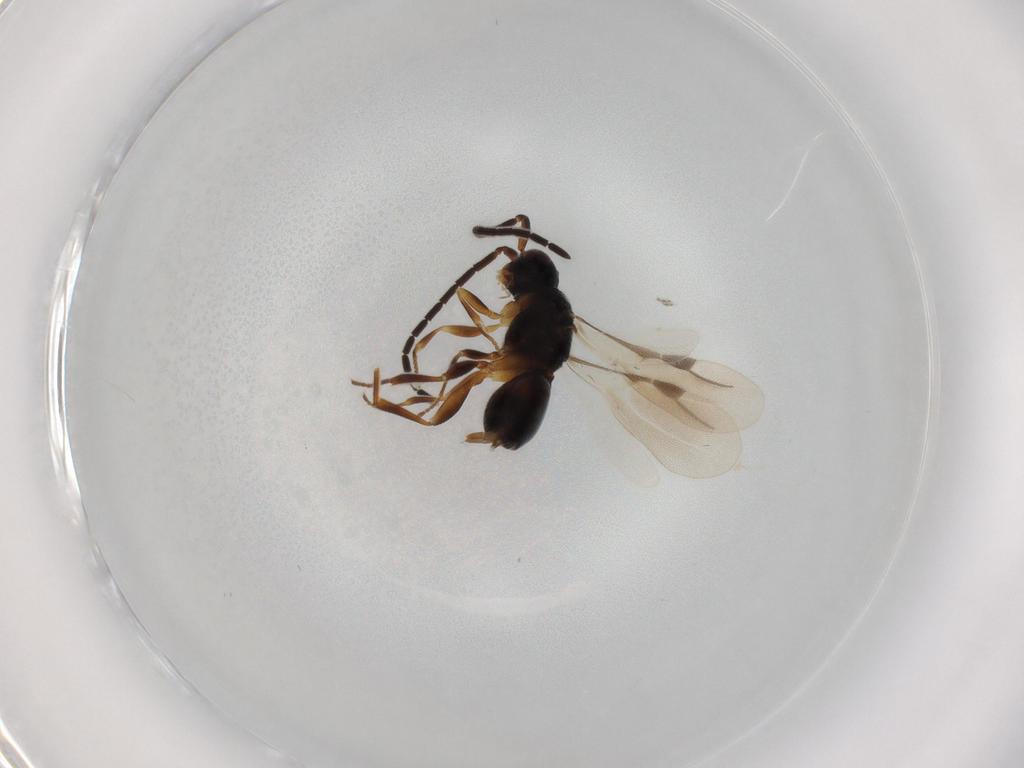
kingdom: Animalia
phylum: Arthropoda
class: Insecta
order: Hymenoptera
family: Megaspilidae
